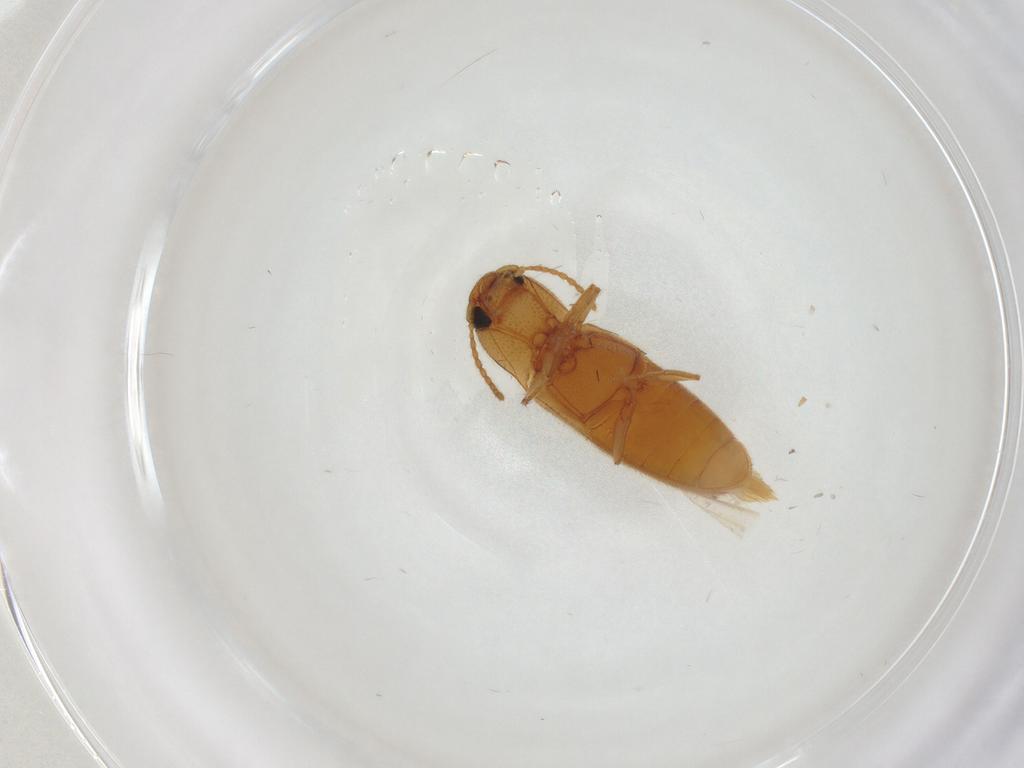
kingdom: Animalia
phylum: Arthropoda
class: Insecta
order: Coleoptera
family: Elateridae
